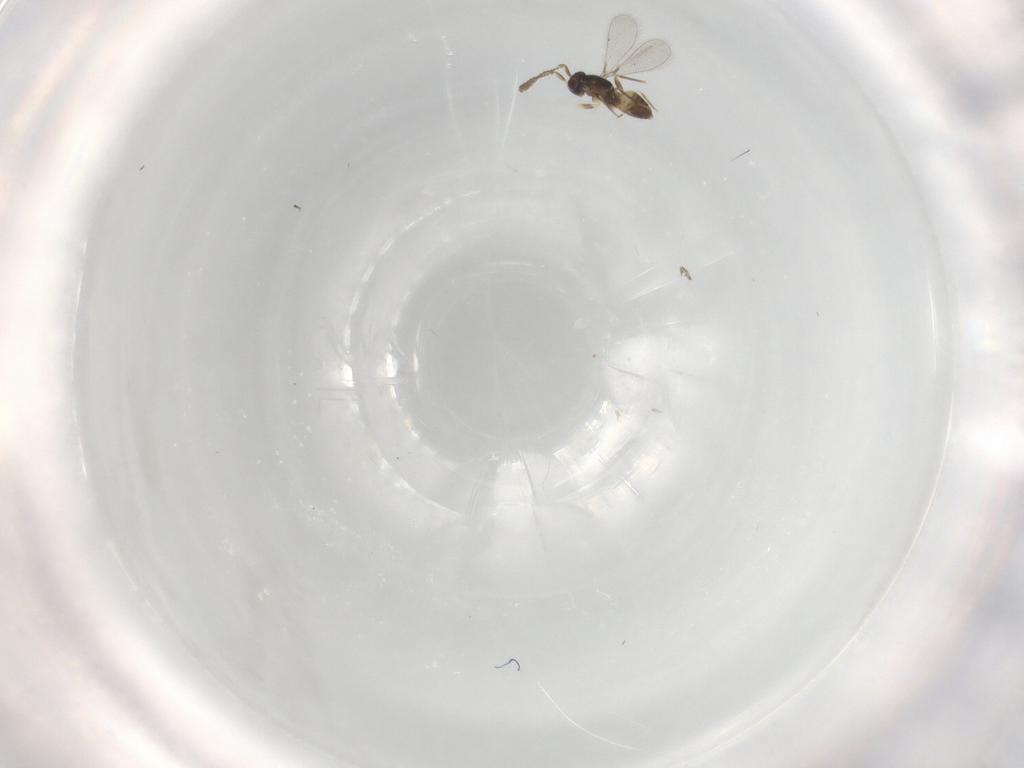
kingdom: Animalia
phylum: Arthropoda
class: Insecta
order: Hymenoptera
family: Mymaridae
